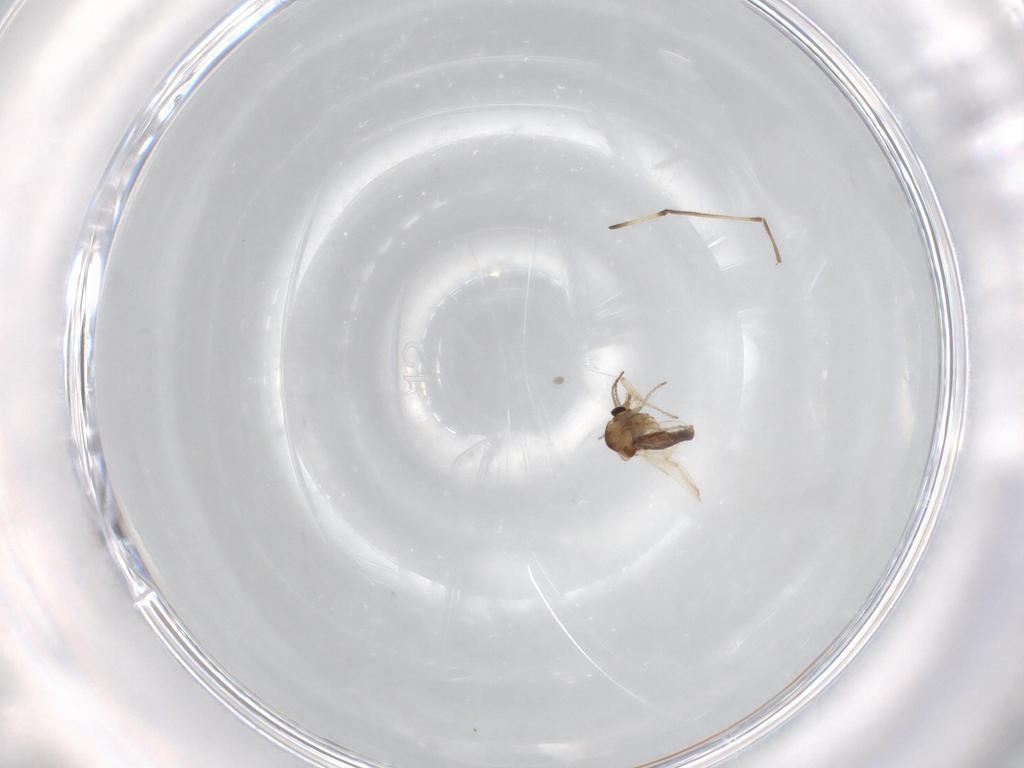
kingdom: Animalia
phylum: Arthropoda
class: Insecta
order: Diptera
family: Ceratopogonidae
